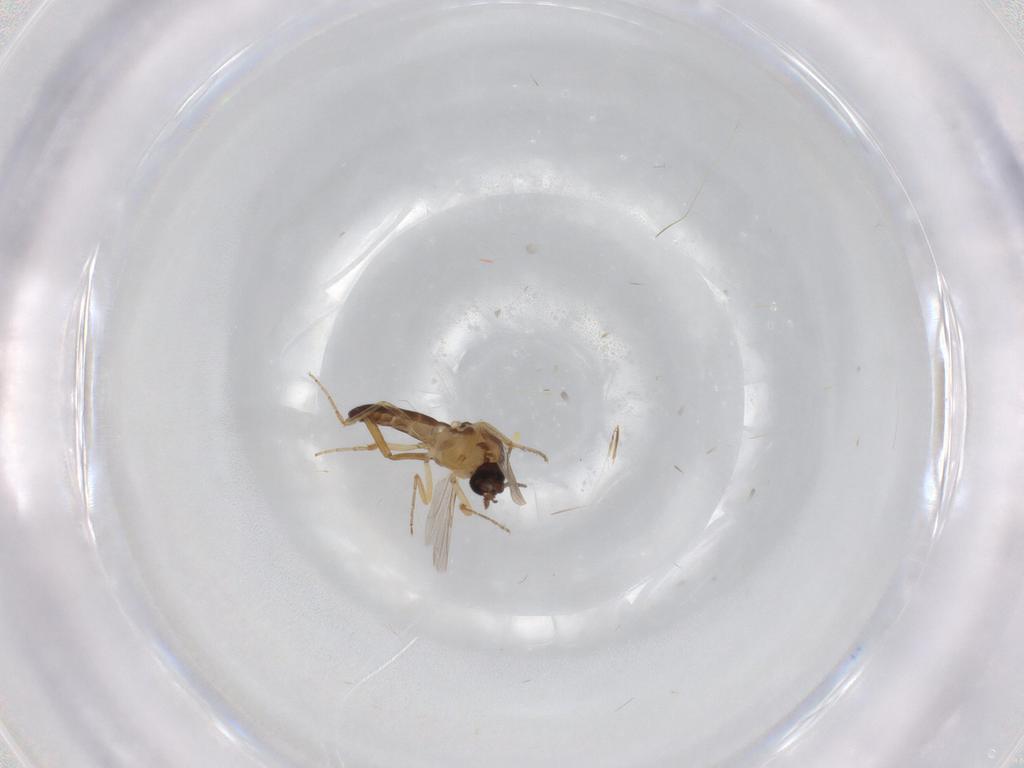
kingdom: Animalia
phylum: Arthropoda
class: Insecta
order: Diptera
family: Ceratopogonidae
